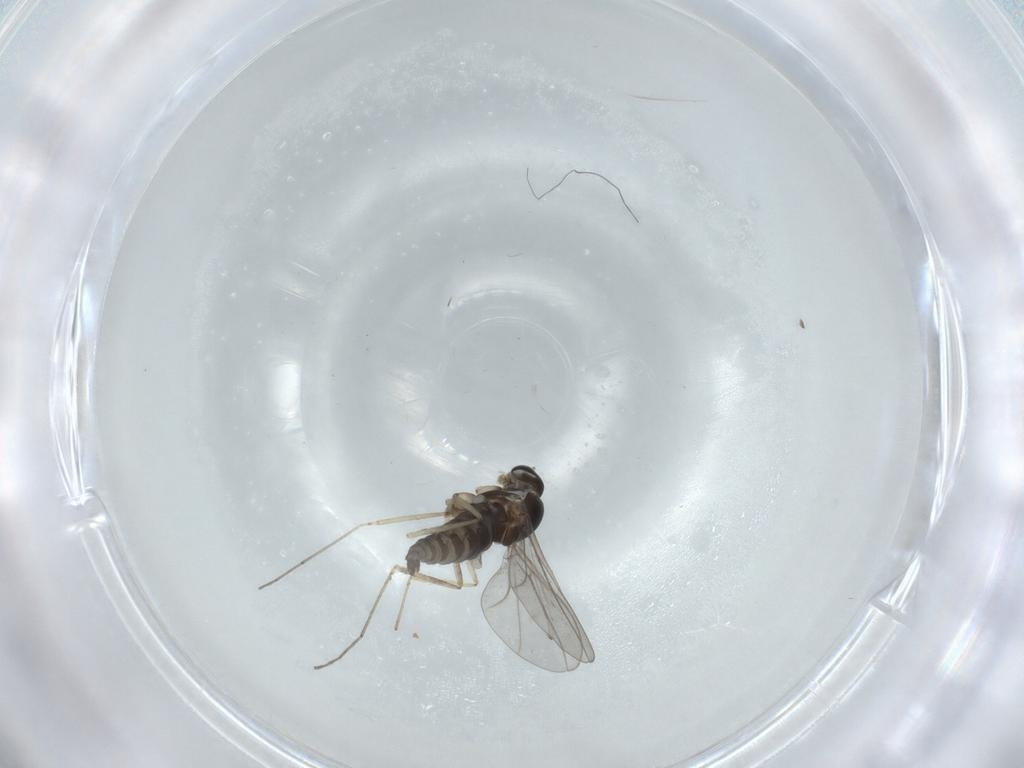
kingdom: Animalia
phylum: Arthropoda
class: Insecta
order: Diptera
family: Cecidomyiidae
